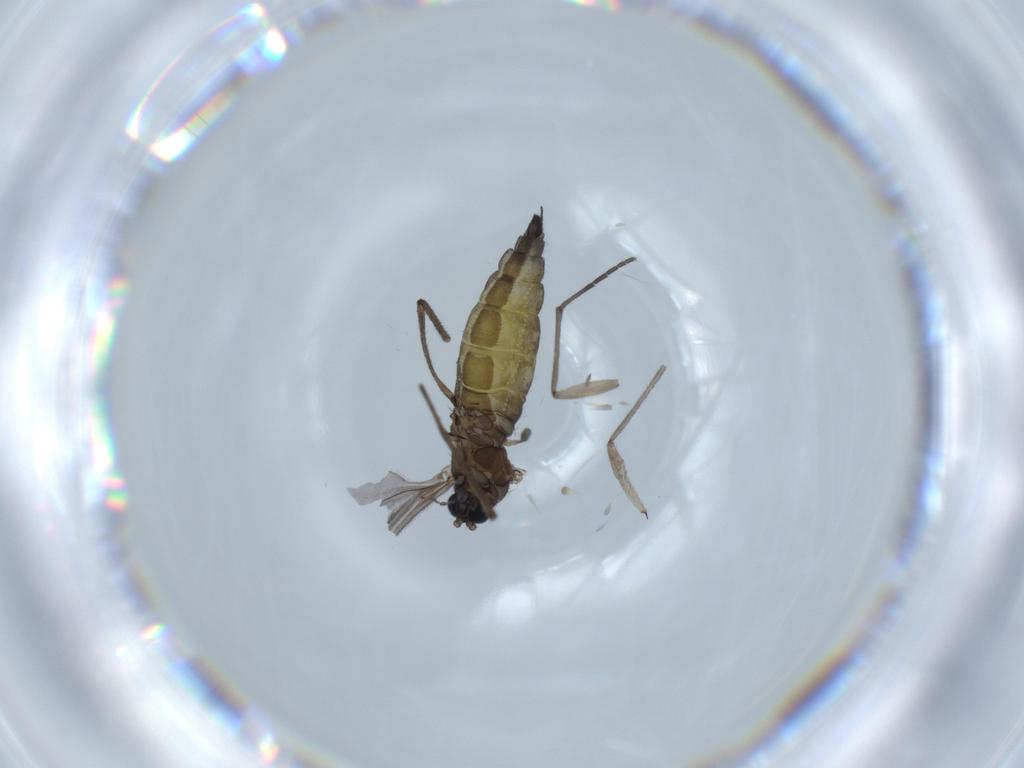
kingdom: Animalia
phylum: Arthropoda
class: Insecta
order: Diptera
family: Sciaridae
